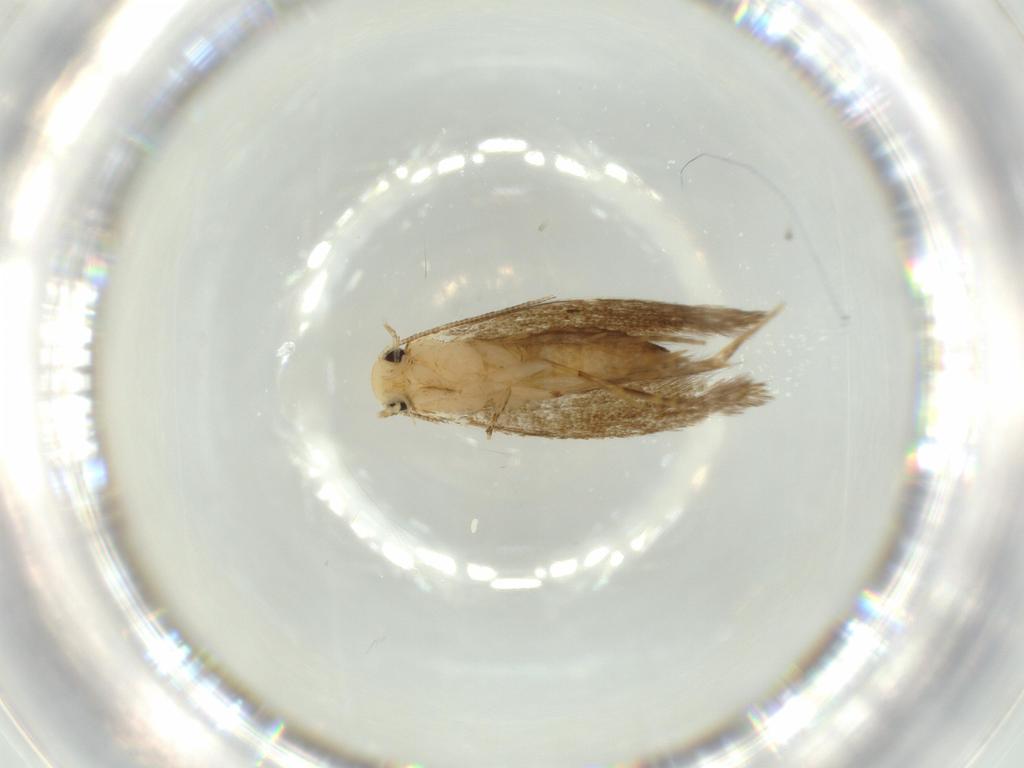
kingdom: Animalia
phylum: Arthropoda
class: Insecta
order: Lepidoptera
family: Tineidae
